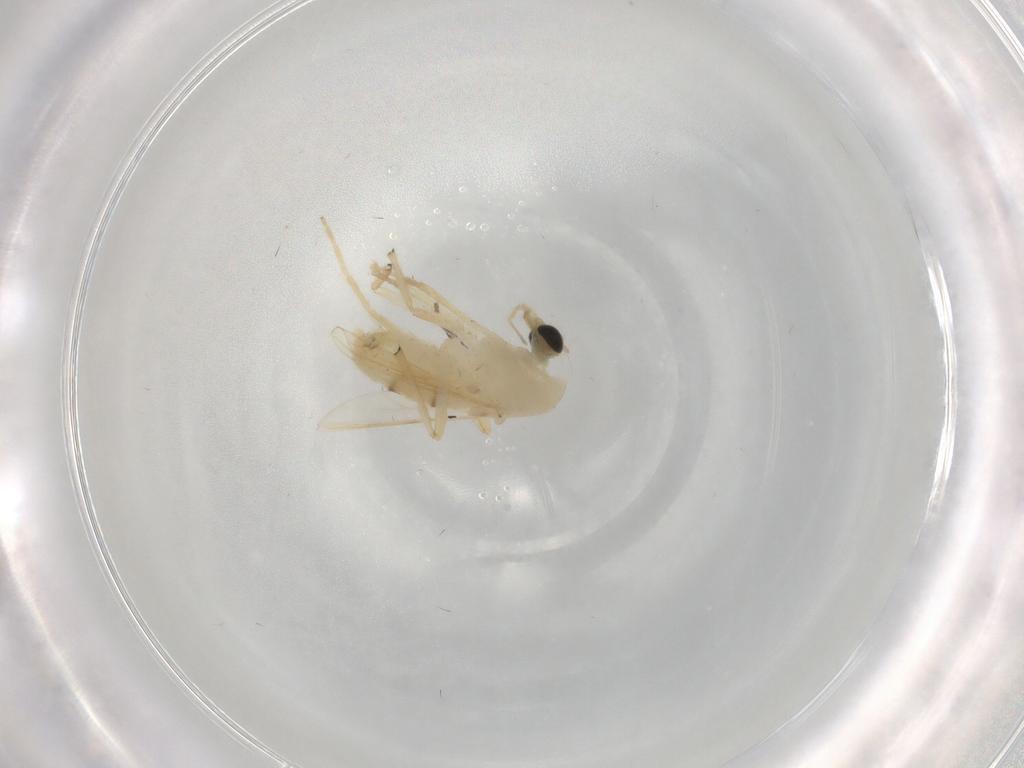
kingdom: Animalia
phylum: Arthropoda
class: Insecta
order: Diptera
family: Chironomidae
